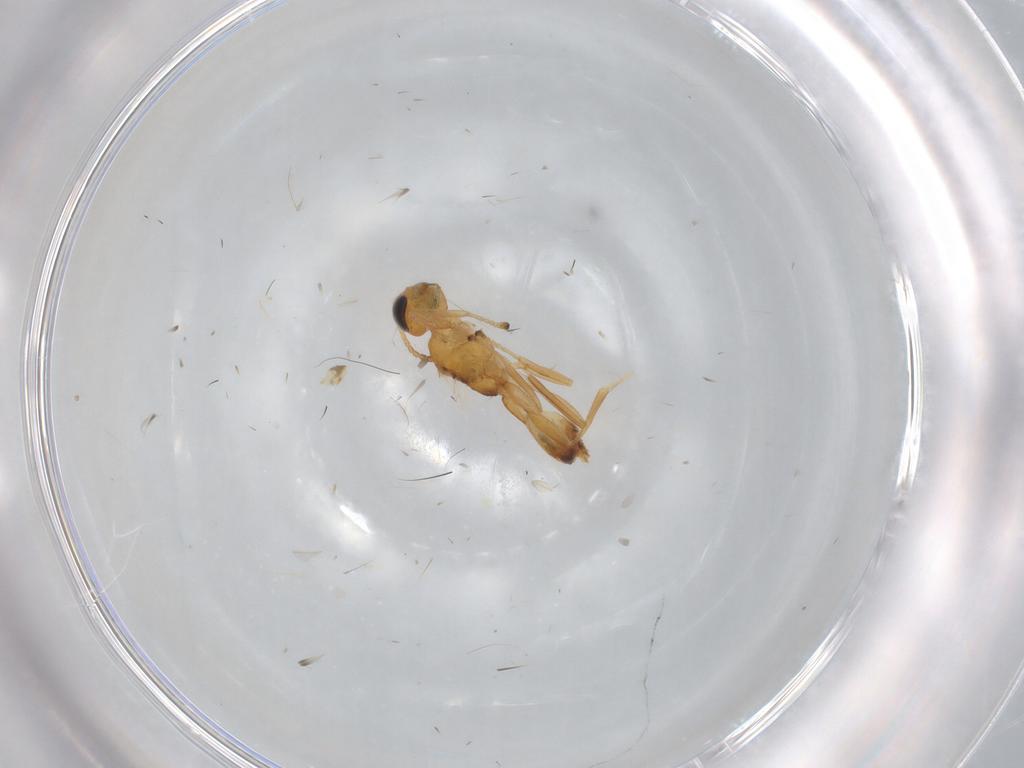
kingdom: Animalia
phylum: Arthropoda
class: Insecta
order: Hymenoptera
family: Braconidae
